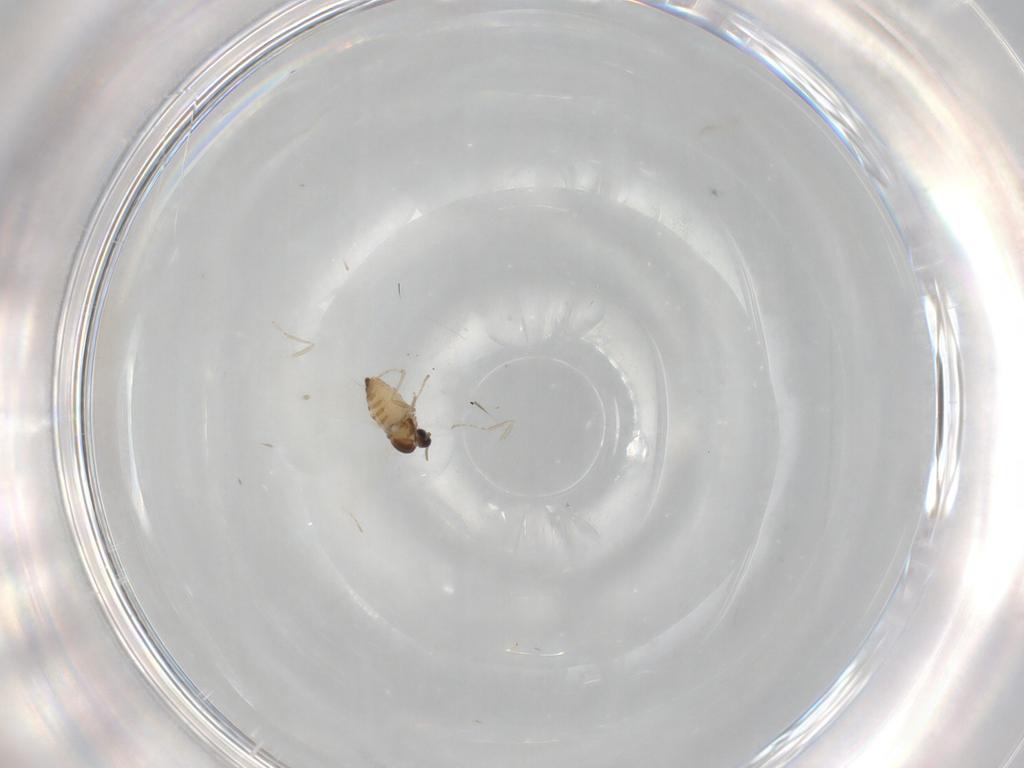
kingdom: Animalia
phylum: Arthropoda
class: Insecta
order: Diptera
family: Cecidomyiidae
